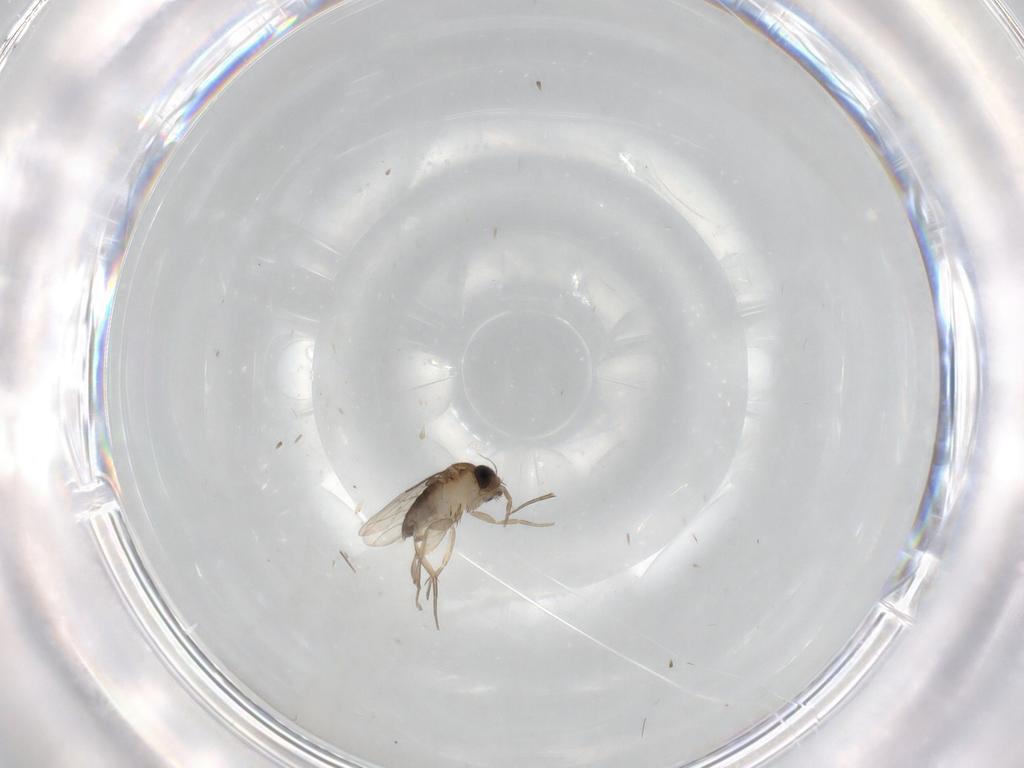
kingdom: Animalia
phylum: Arthropoda
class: Insecta
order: Diptera
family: Phoridae
